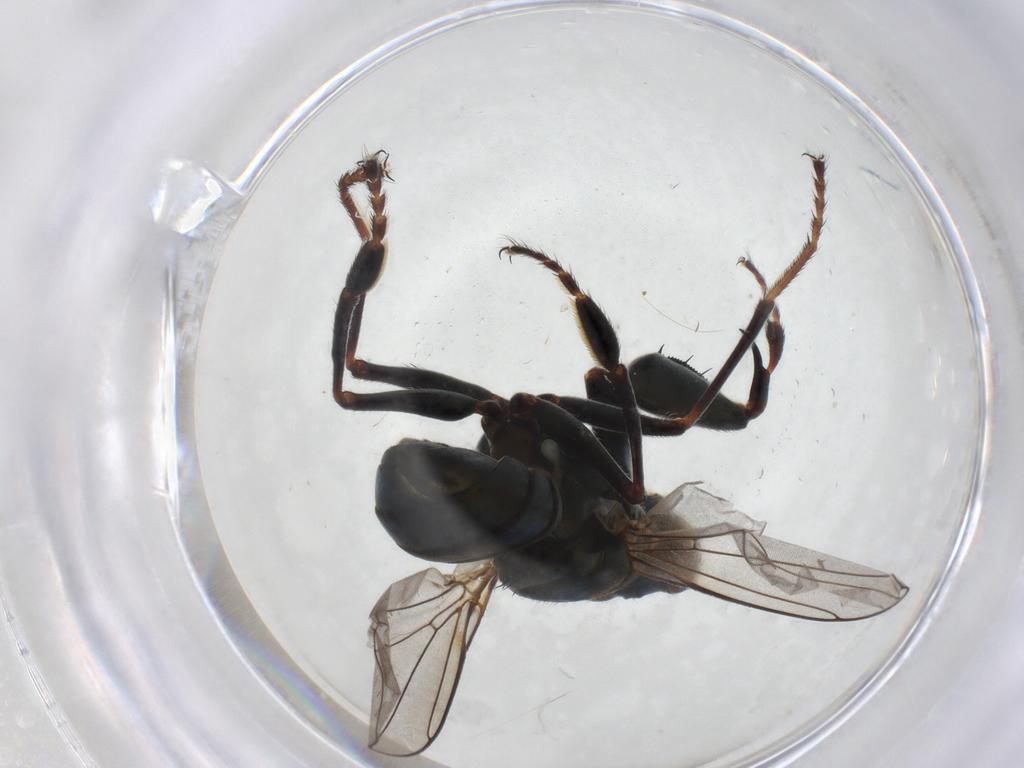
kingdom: Animalia
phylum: Arthropoda
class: Insecta
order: Diptera
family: Ephydridae
